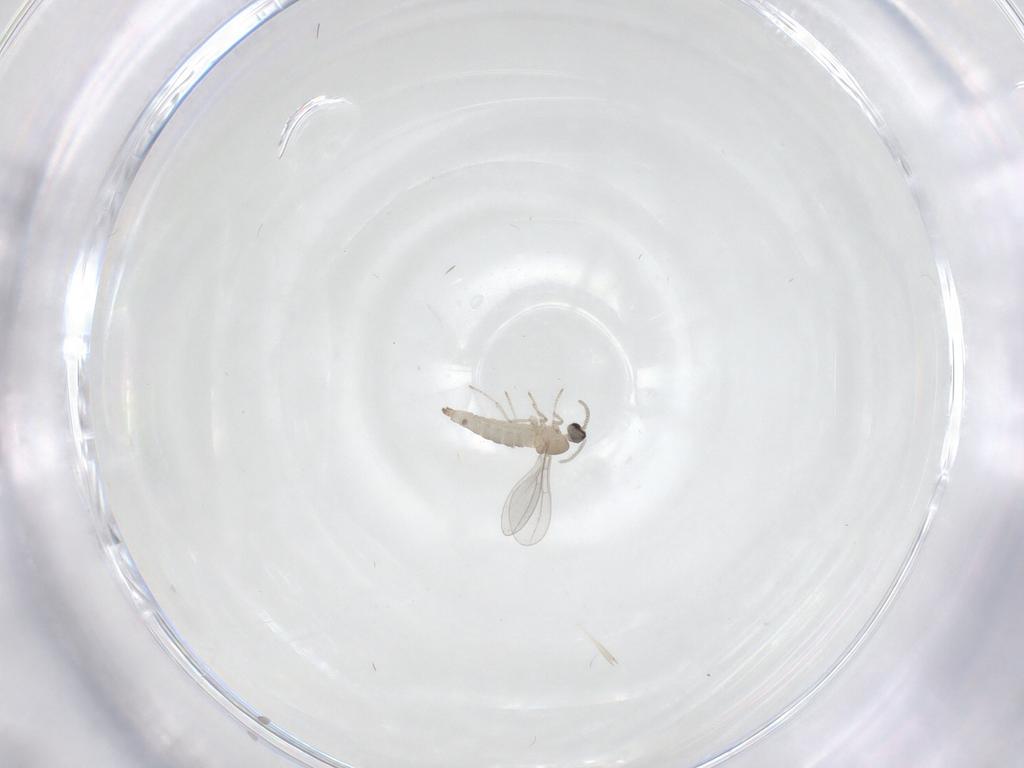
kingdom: Animalia
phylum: Arthropoda
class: Insecta
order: Diptera
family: Cecidomyiidae
